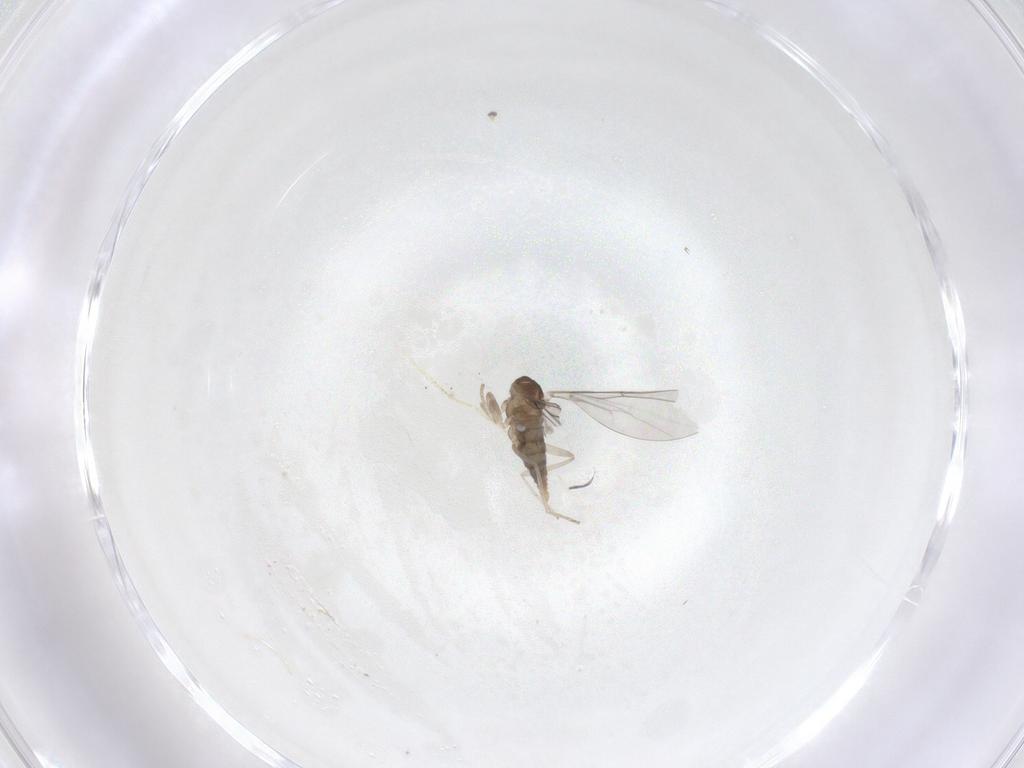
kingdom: Animalia
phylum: Arthropoda
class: Insecta
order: Diptera
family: Cecidomyiidae
